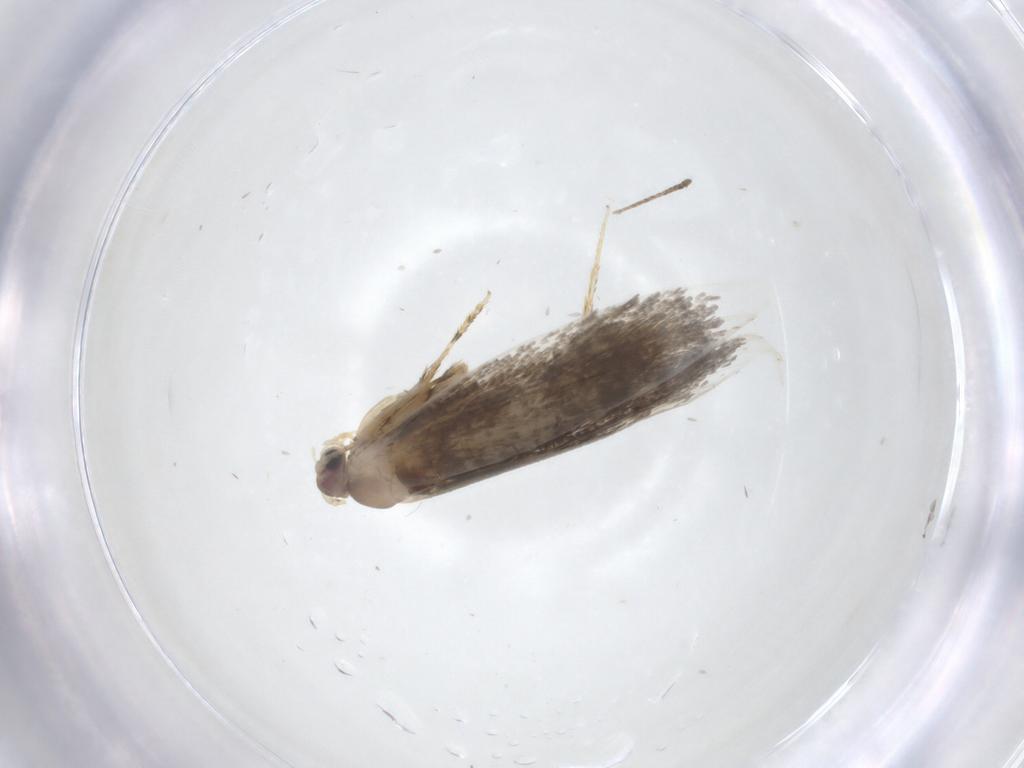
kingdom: Animalia
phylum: Arthropoda
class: Insecta
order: Lepidoptera
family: Tineidae
